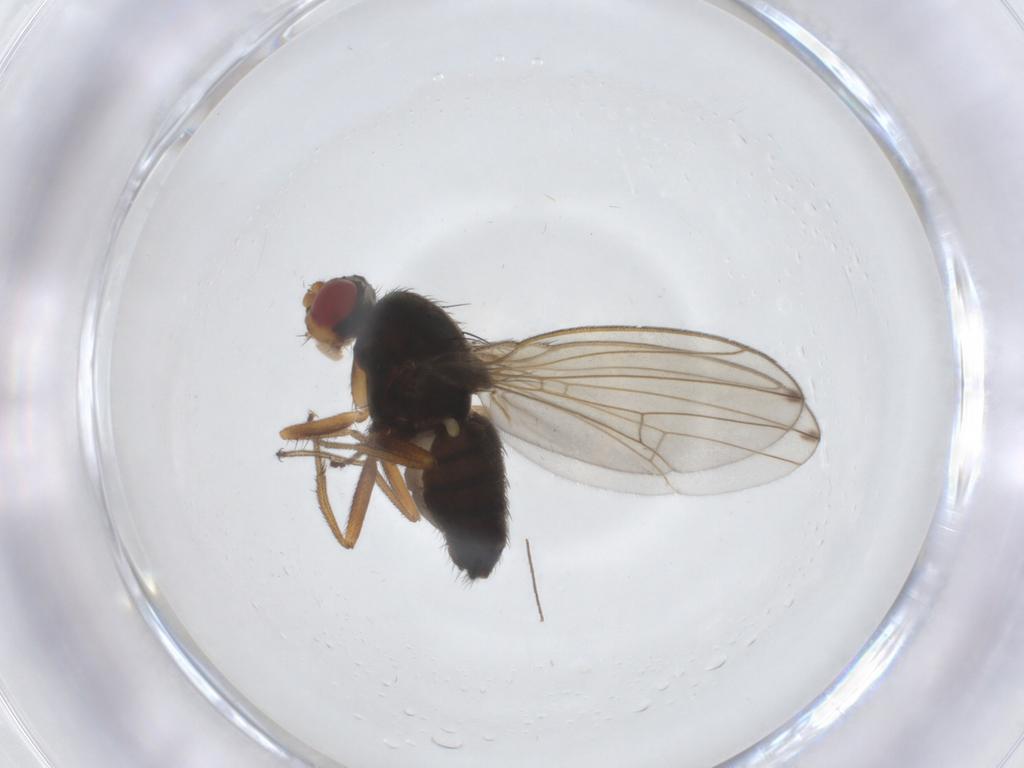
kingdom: Animalia
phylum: Arthropoda
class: Insecta
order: Diptera
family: Drosophilidae
